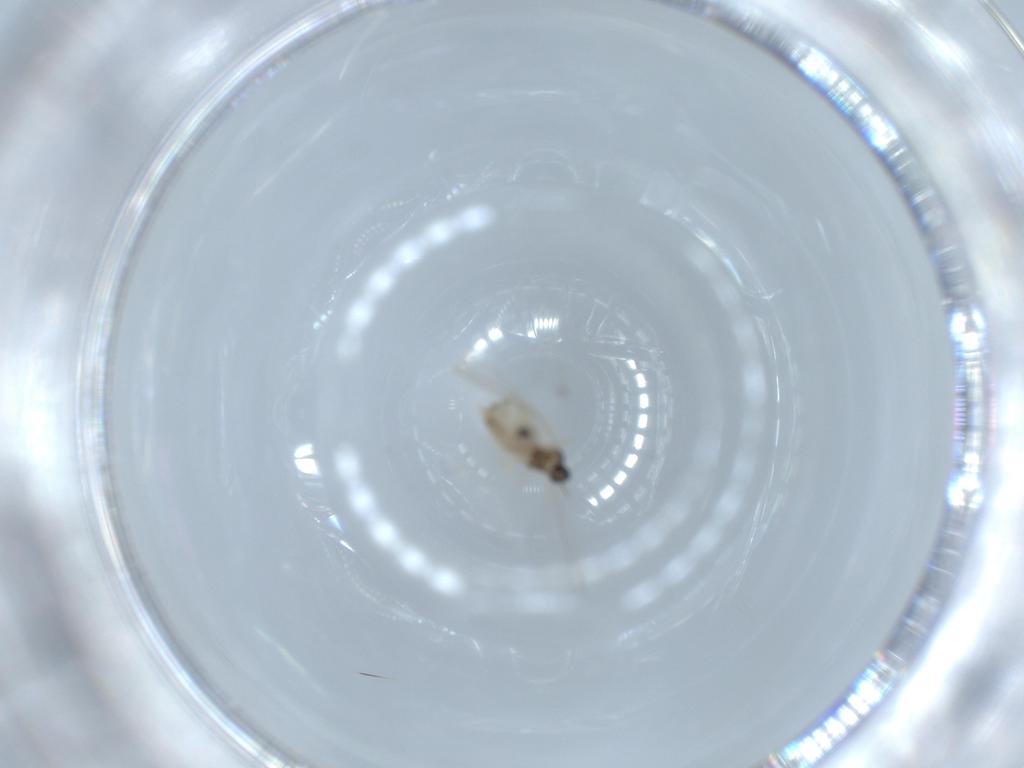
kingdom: Animalia
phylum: Arthropoda
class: Insecta
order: Diptera
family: Cecidomyiidae
